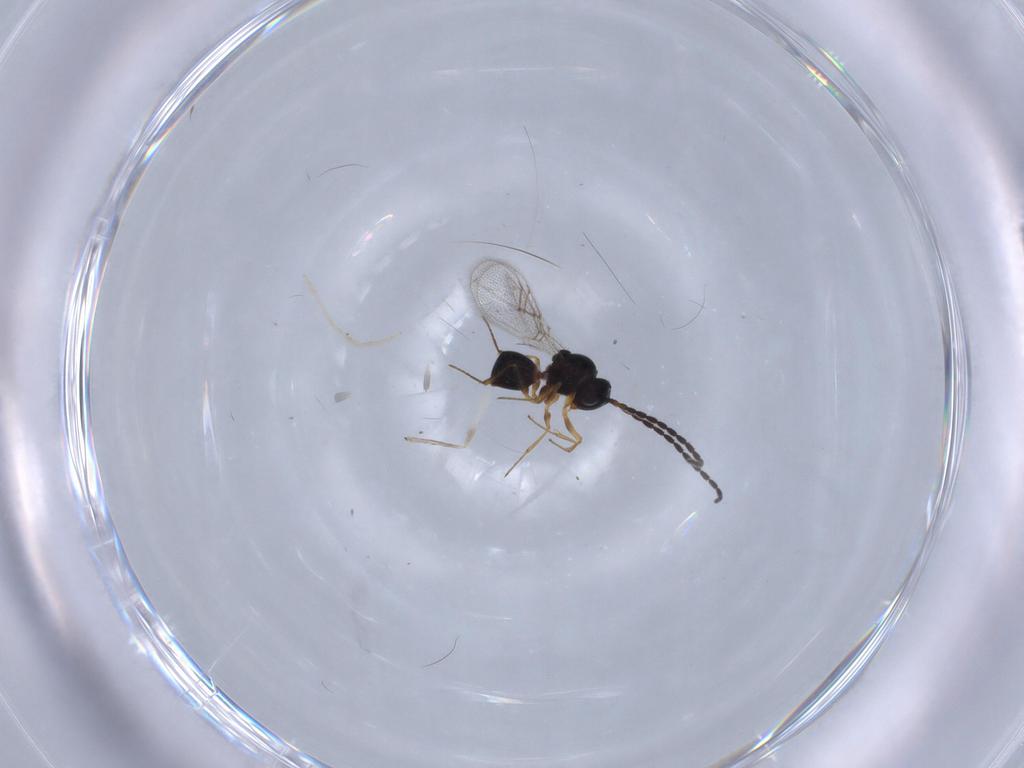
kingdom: Animalia
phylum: Arthropoda
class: Insecta
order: Hymenoptera
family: Figitidae
